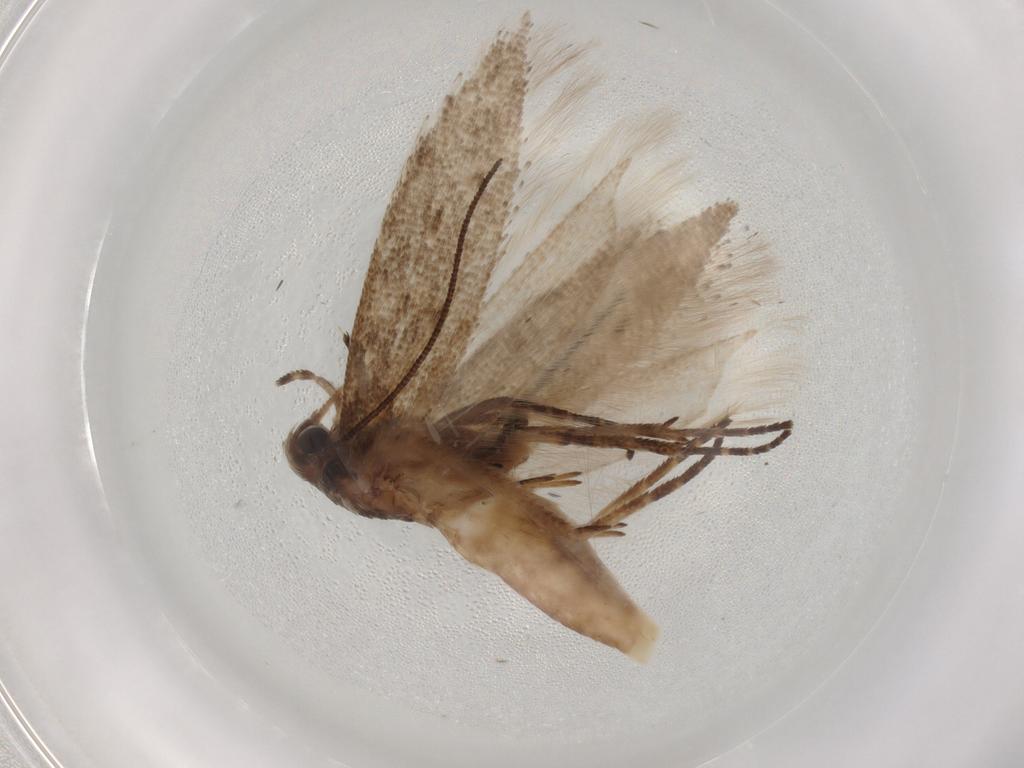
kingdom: Animalia
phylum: Arthropoda
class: Insecta
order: Lepidoptera
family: Gelechiidae
